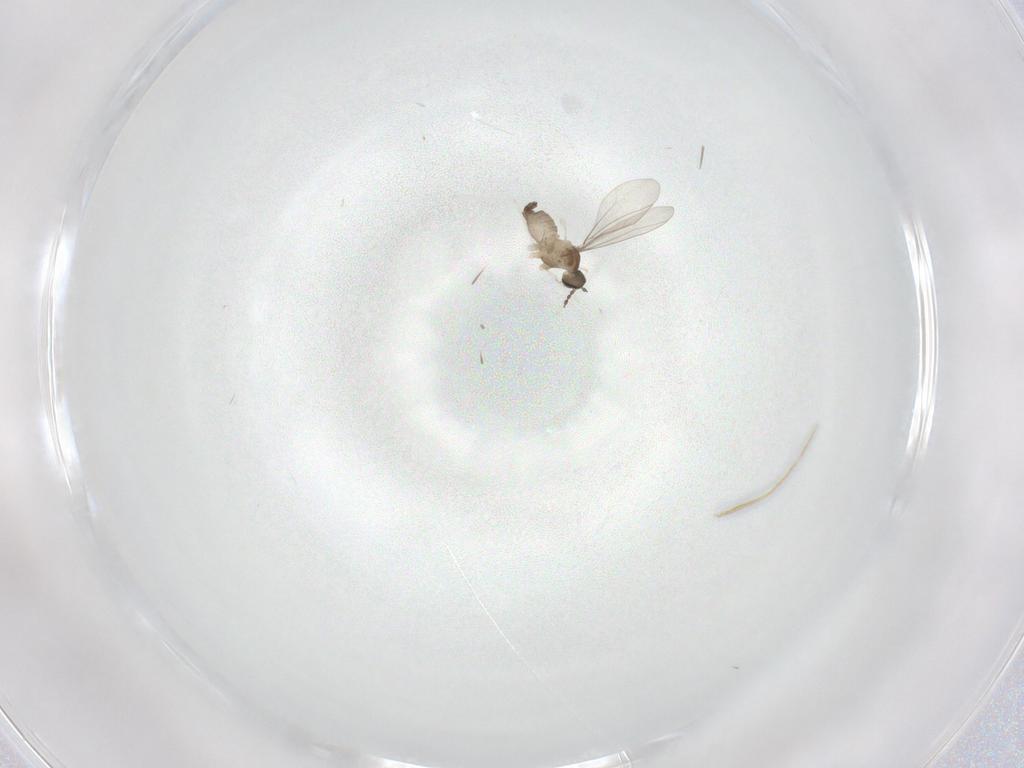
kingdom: Animalia
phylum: Arthropoda
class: Insecta
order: Diptera
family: Cecidomyiidae
